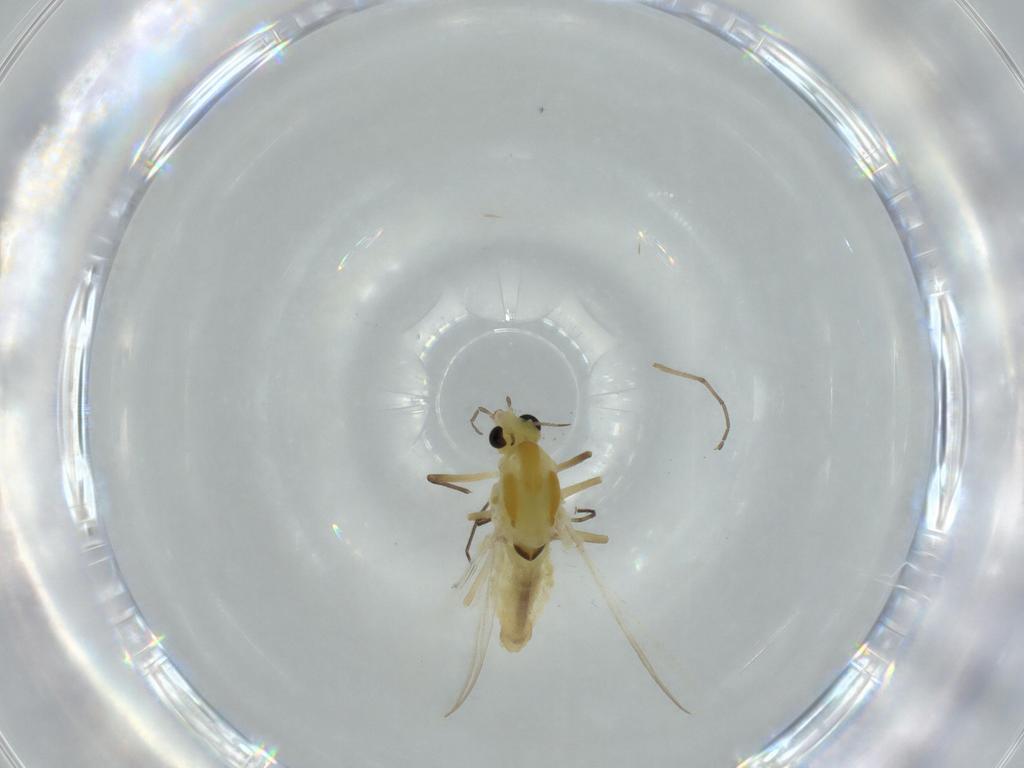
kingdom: Animalia
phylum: Arthropoda
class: Insecta
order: Diptera
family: Chironomidae
